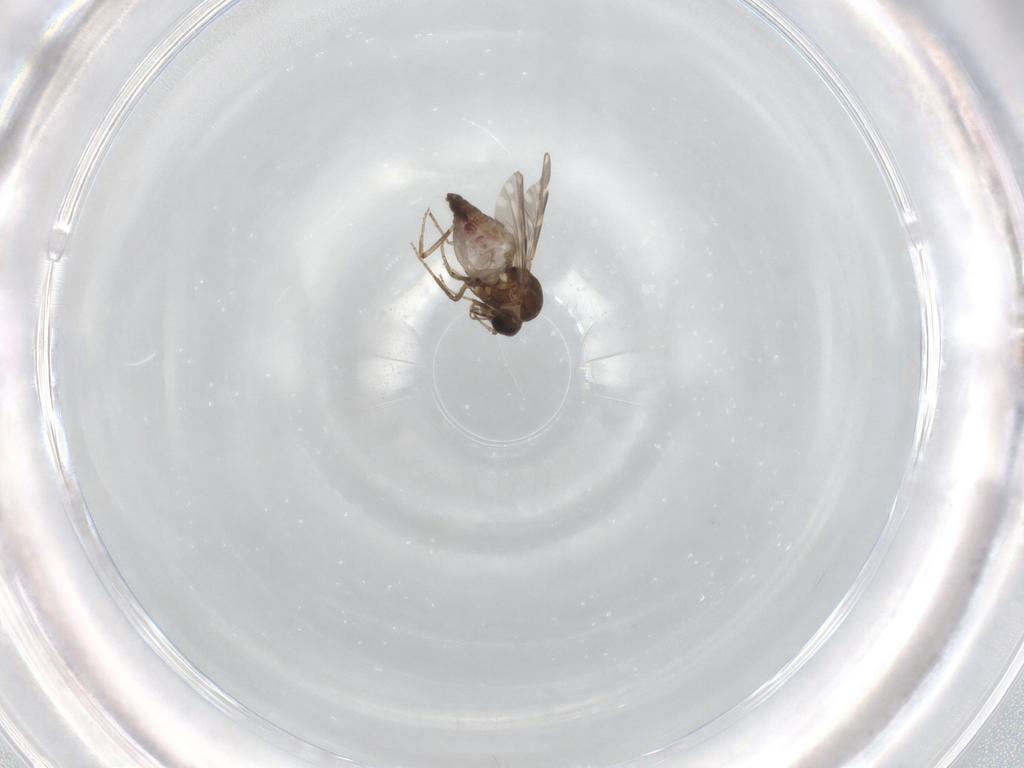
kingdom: Animalia
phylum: Arthropoda
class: Insecta
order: Diptera
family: Ceratopogonidae
